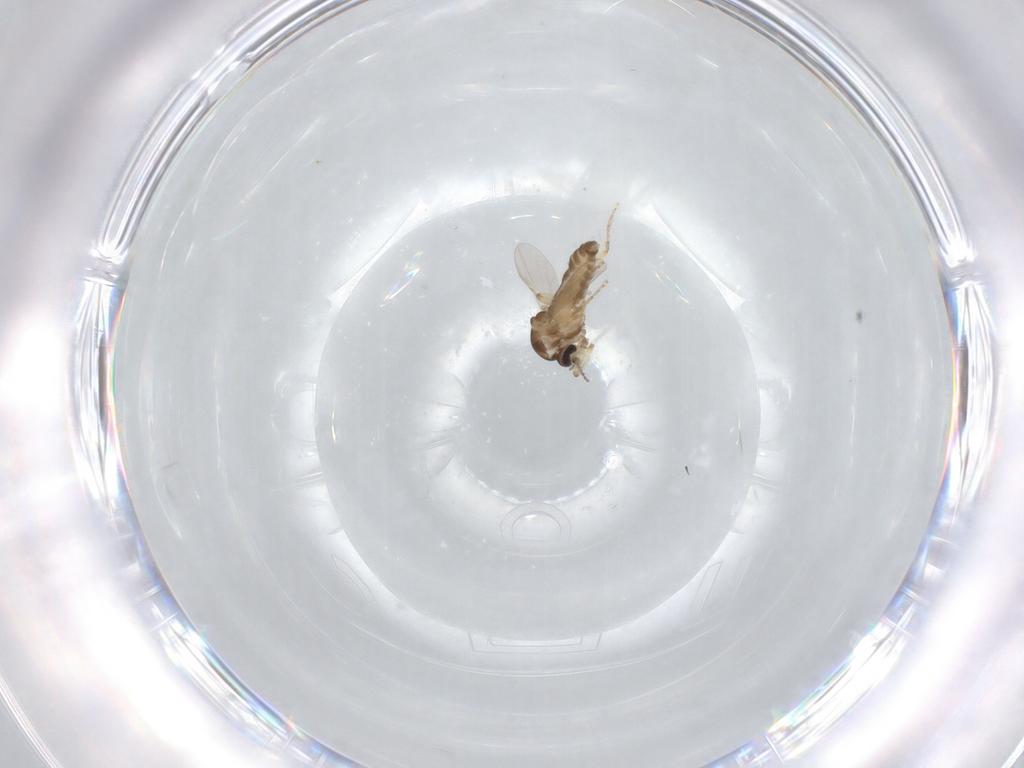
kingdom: Animalia
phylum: Arthropoda
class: Insecta
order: Diptera
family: Ceratopogonidae
